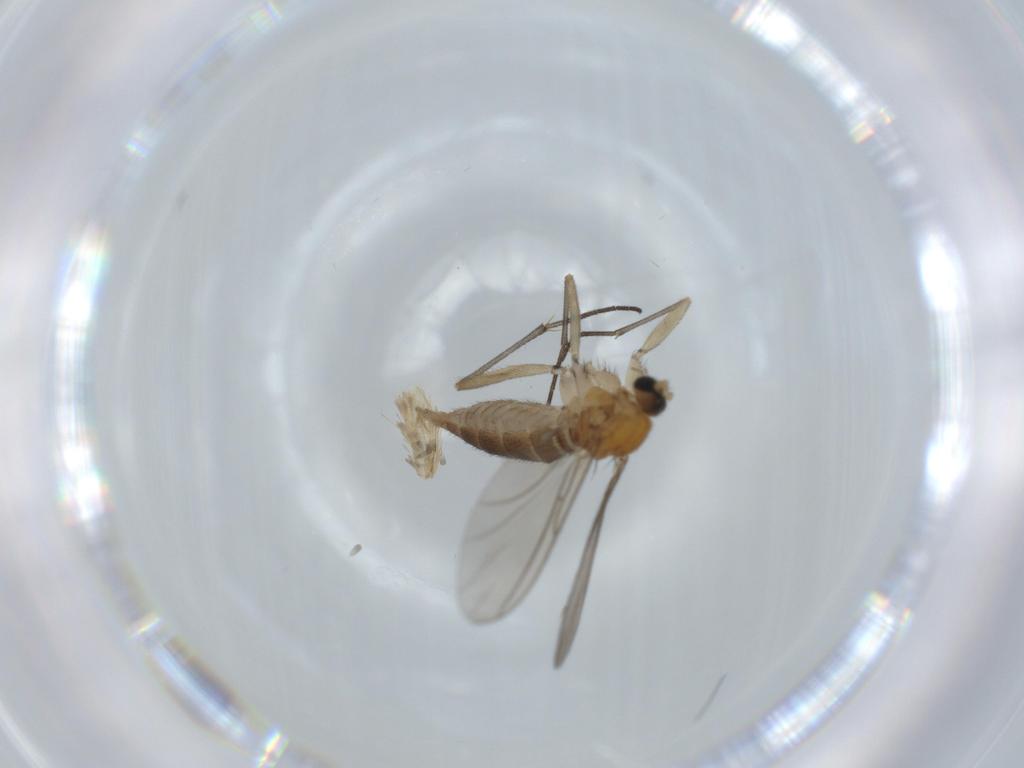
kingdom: Animalia
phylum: Arthropoda
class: Insecta
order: Diptera
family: Sciaridae
